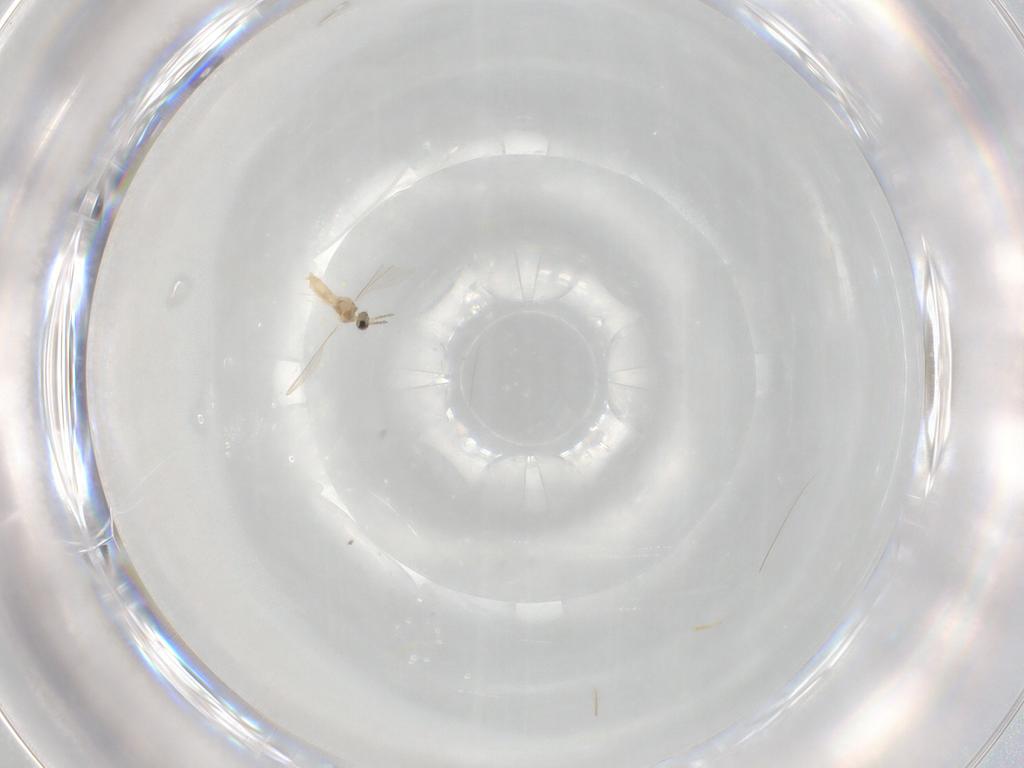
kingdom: Animalia
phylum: Arthropoda
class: Insecta
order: Diptera
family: Cecidomyiidae
